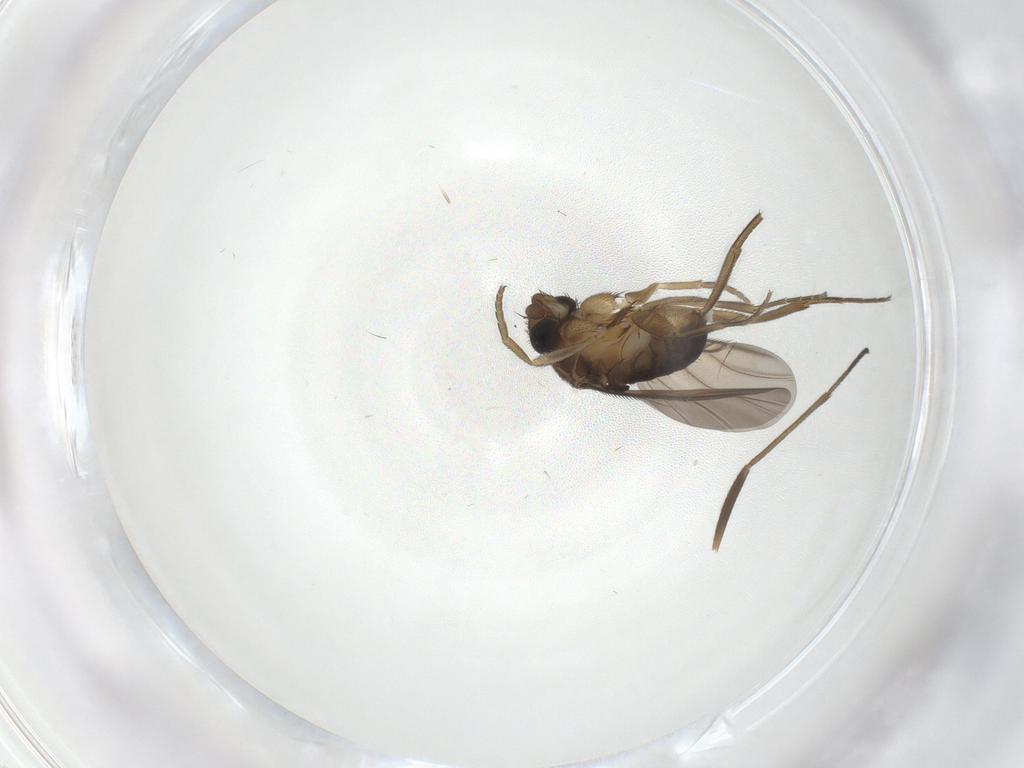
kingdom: Animalia
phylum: Arthropoda
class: Insecta
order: Diptera
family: Phoridae
